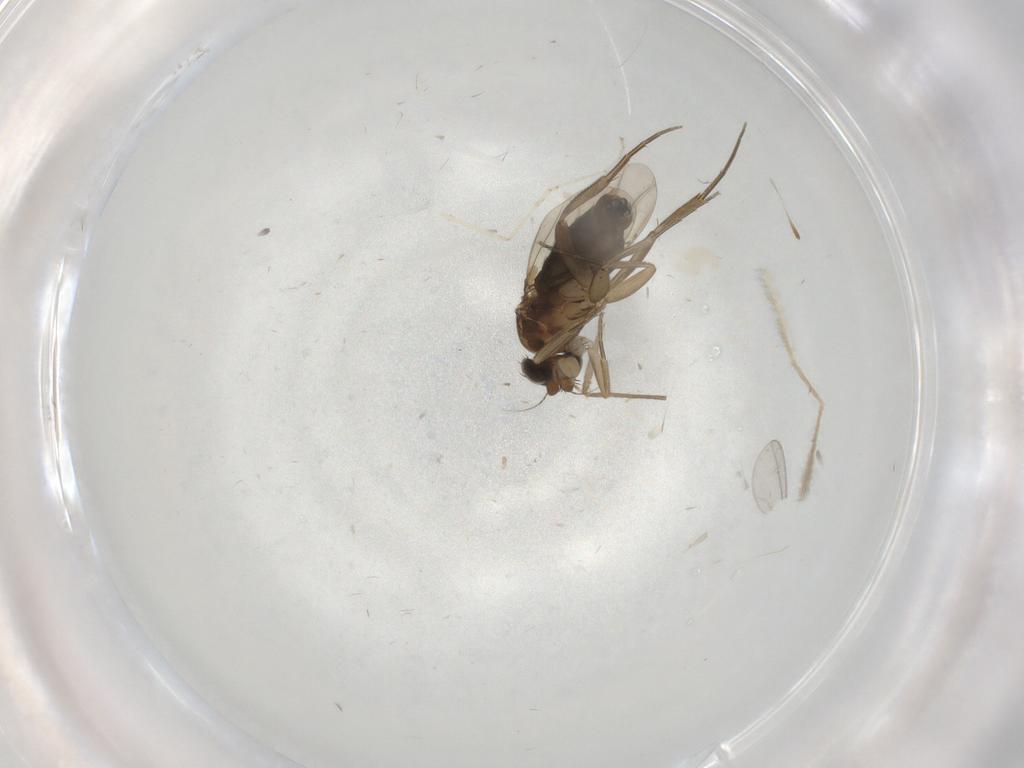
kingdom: Animalia
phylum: Arthropoda
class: Insecta
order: Diptera
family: Phoridae
